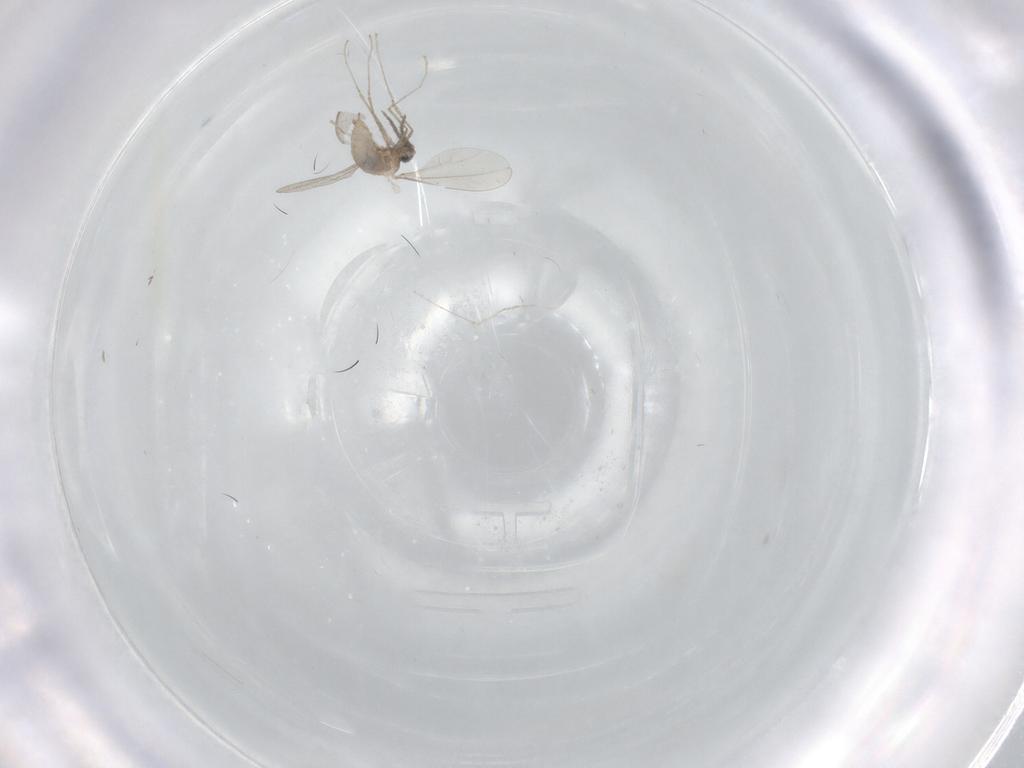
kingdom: Animalia
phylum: Arthropoda
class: Insecta
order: Diptera
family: Cecidomyiidae
